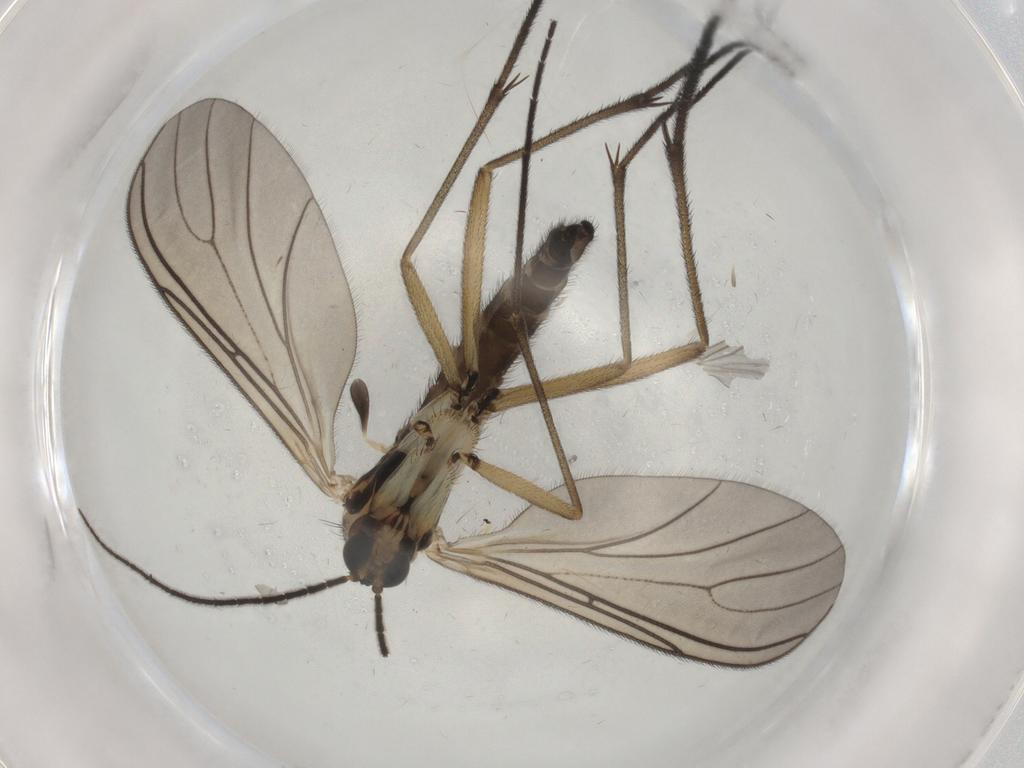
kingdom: Animalia
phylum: Arthropoda
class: Insecta
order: Diptera
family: Sciaridae
